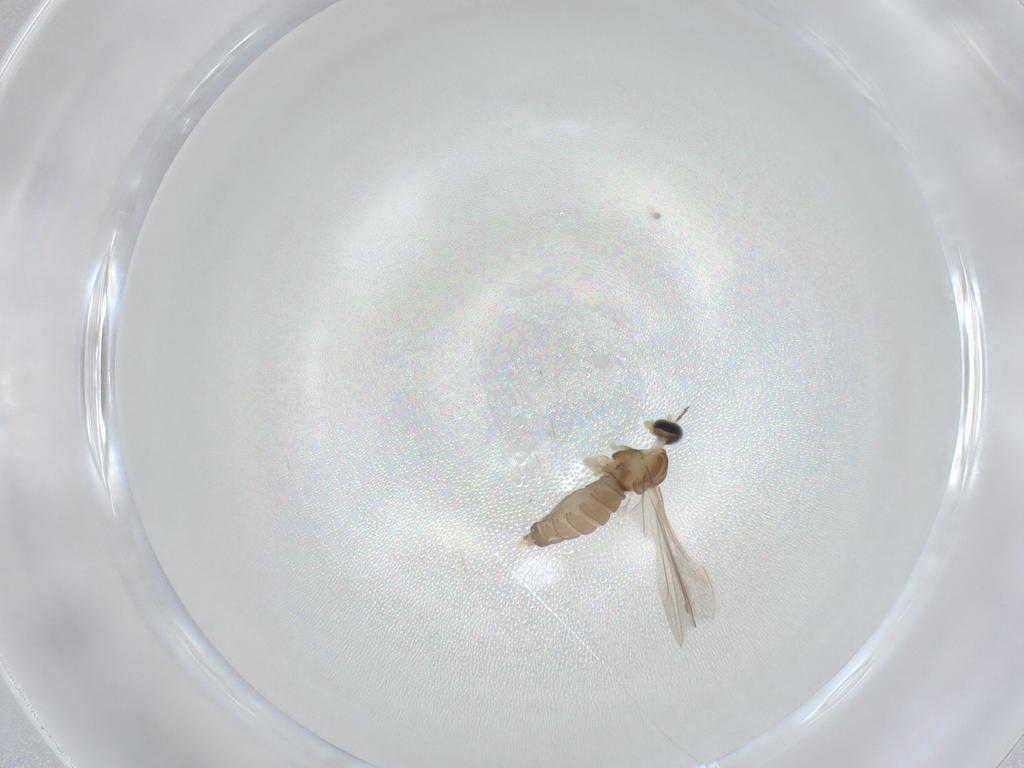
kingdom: Animalia
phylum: Arthropoda
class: Insecta
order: Diptera
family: Cecidomyiidae
